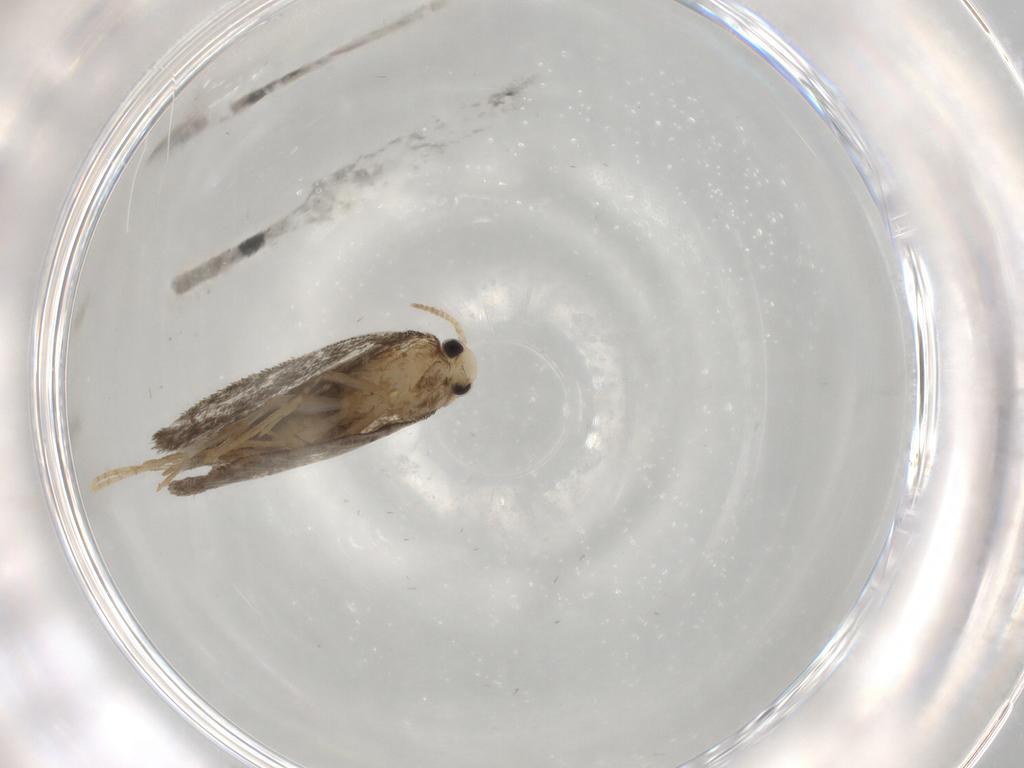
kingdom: Animalia
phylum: Arthropoda
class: Insecta
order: Lepidoptera
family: Psychidae
